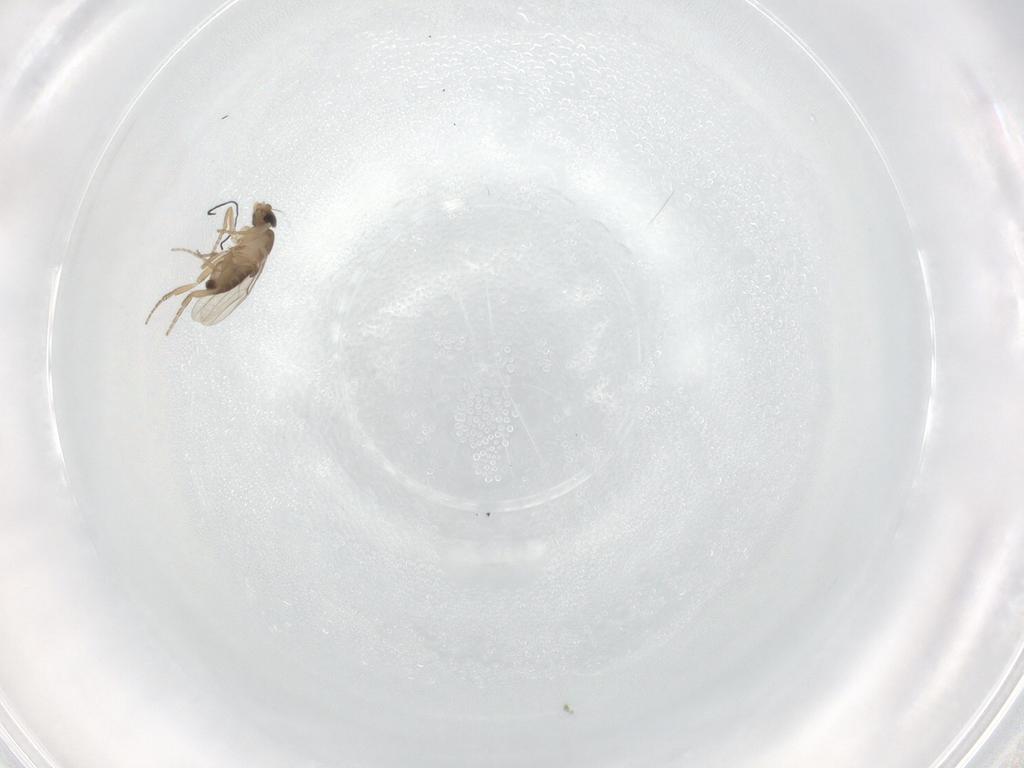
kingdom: Animalia
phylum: Arthropoda
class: Insecta
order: Diptera
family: Phoridae
